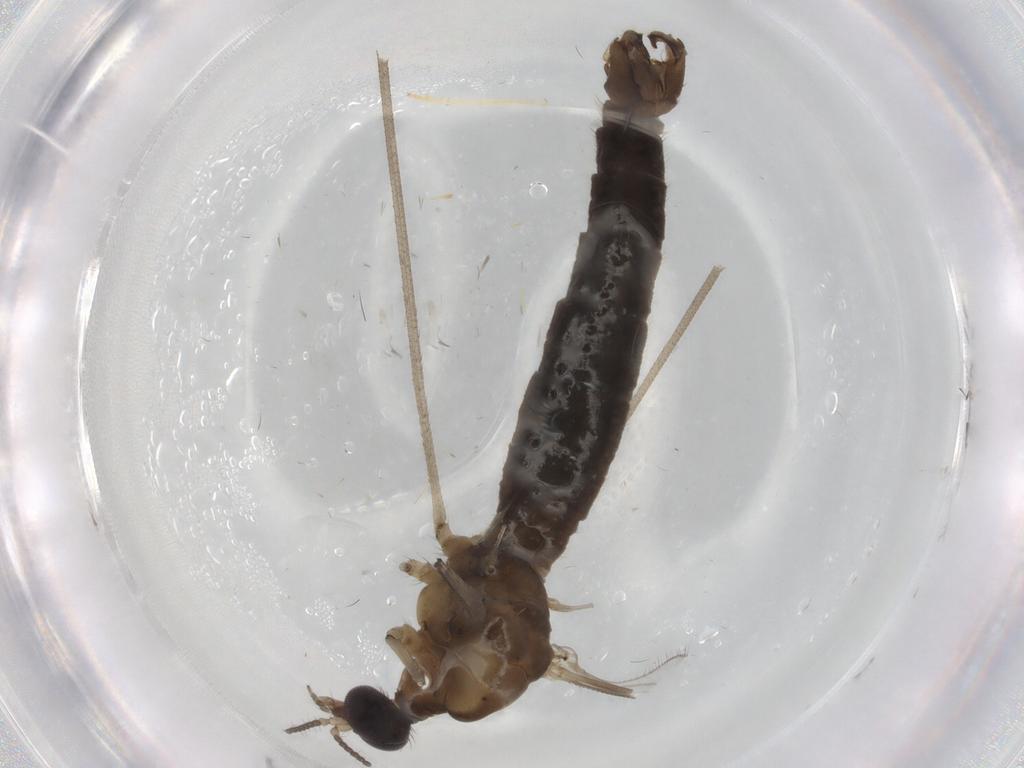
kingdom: Animalia
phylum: Arthropoda
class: Insecta
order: Diptera
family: Limoniidae
